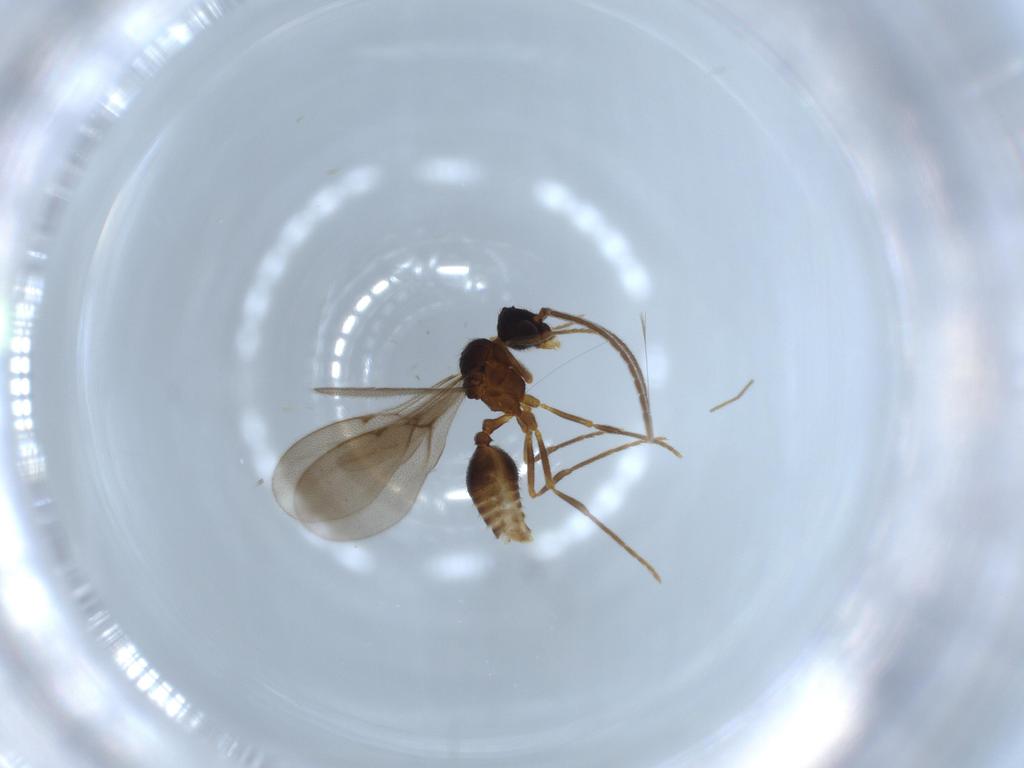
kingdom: Animalia
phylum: Arthropoda
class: Insecta
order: Hymenoptera
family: Formicidae
